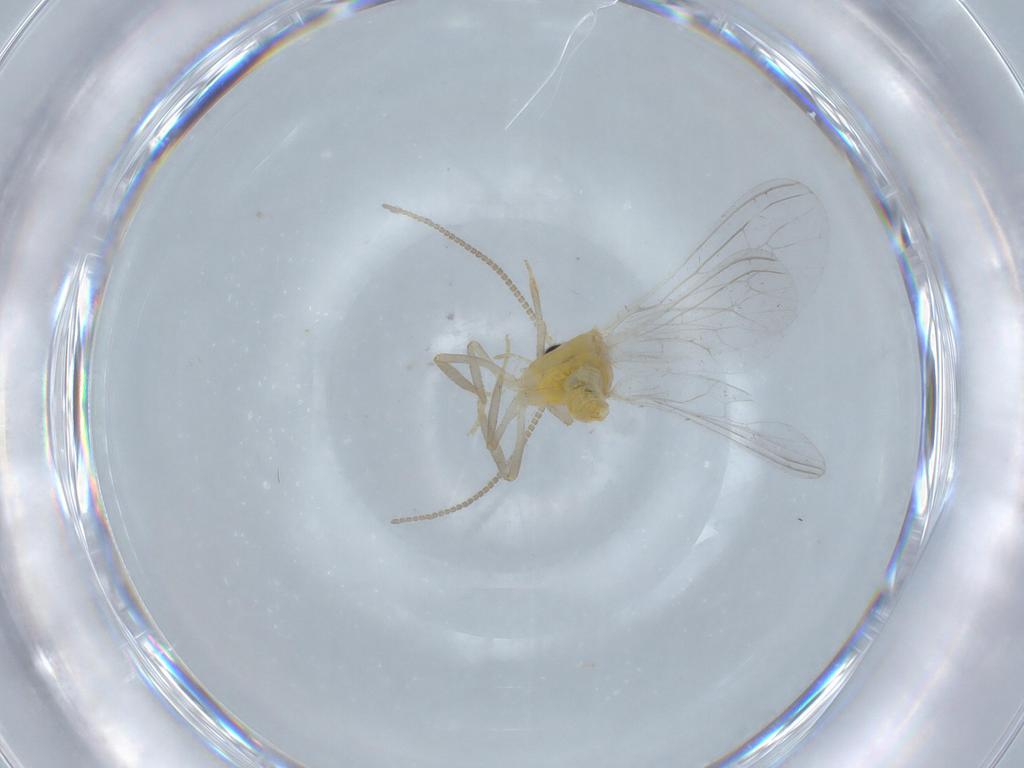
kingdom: Animalia
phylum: Arthropoda
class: Insecta
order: Neuroptera
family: Coniopterygidae
